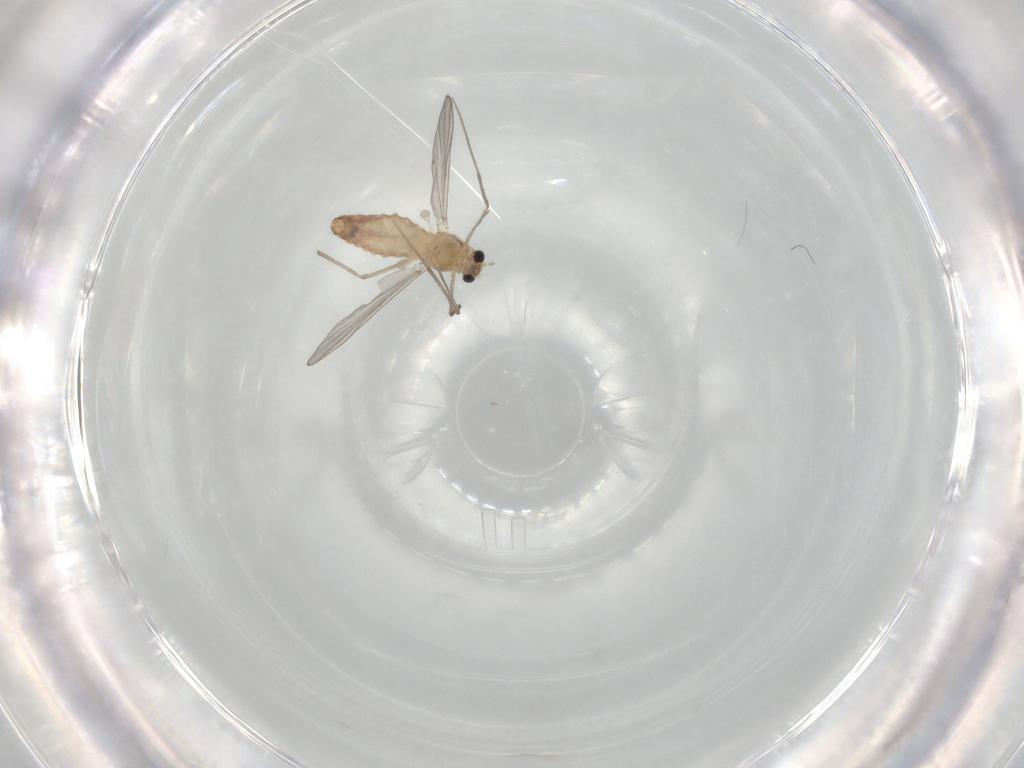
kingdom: Animalia
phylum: Arthropoda
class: Insecta
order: Diptera
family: Chironomidae
